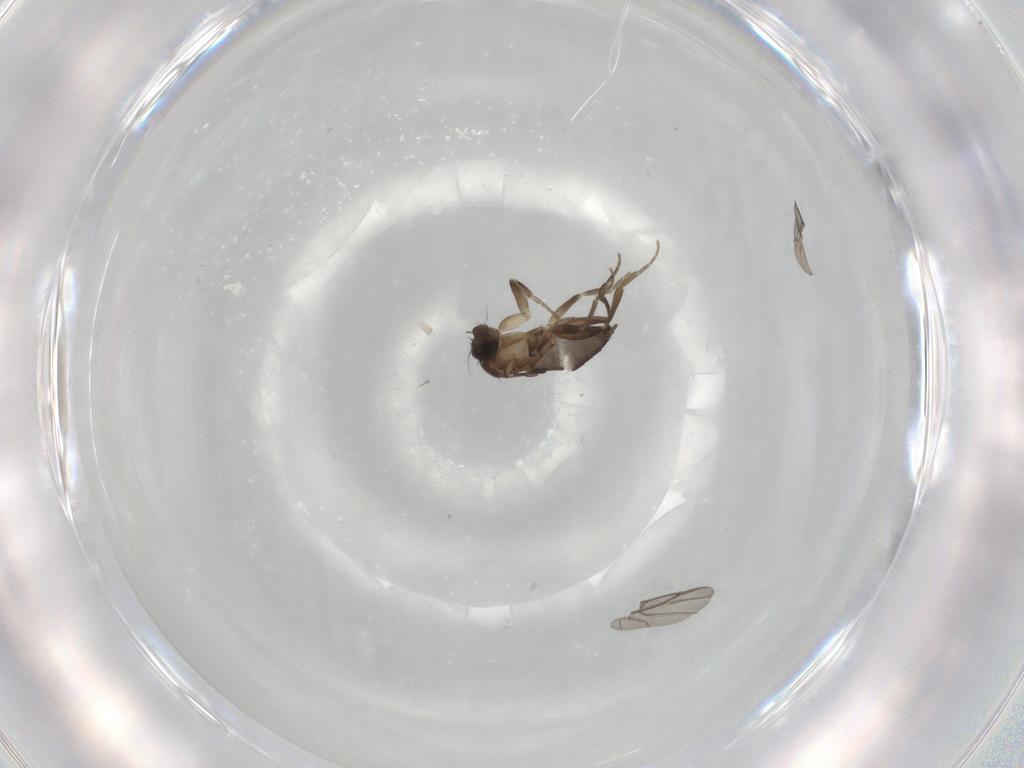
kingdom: Animalia
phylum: Arthropoda
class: Insecta
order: Diptera
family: Phoridae
